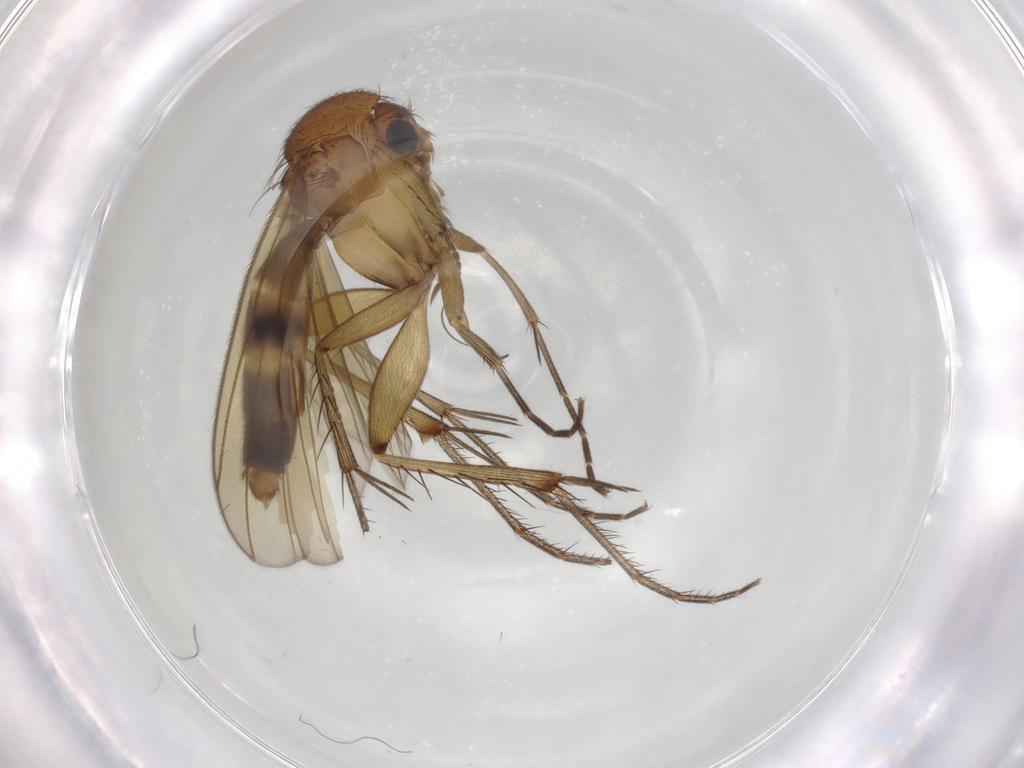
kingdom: Animalia
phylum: Arthropoda
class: Insecta
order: Diptera
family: Mycetophilidae
